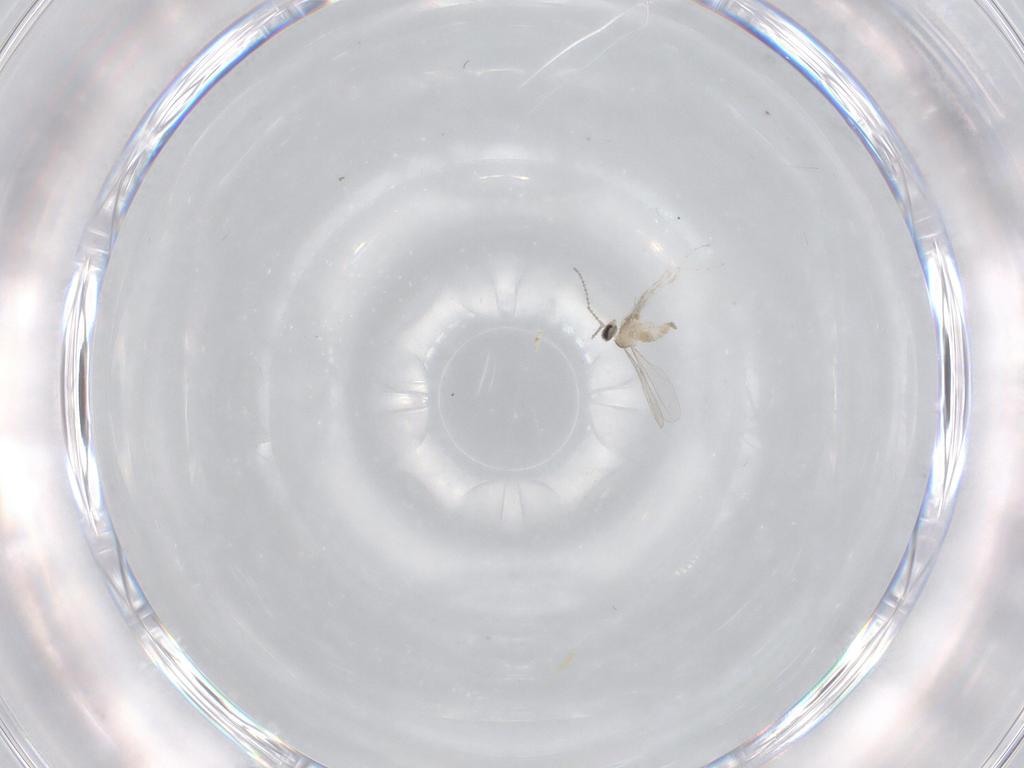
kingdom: Animalia
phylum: Arthropoda
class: Insecta
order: Diptera
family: Cecidomyiidae
